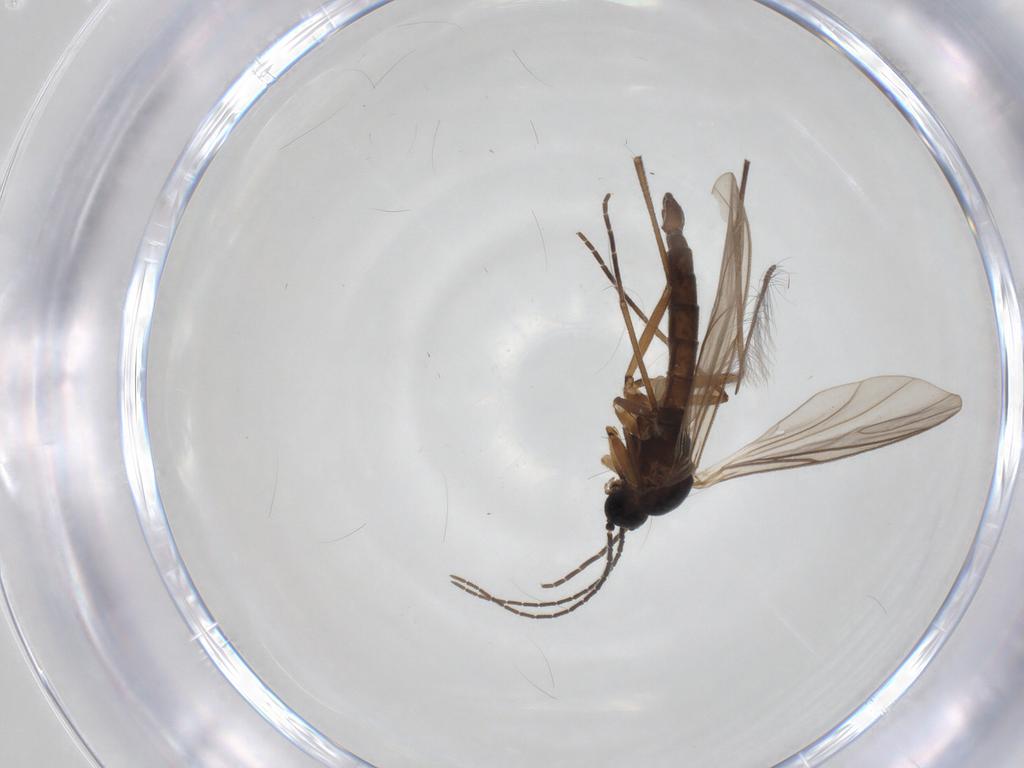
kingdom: Animalia
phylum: Arthropoda
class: Insecta
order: Diptera
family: Sciaridae
